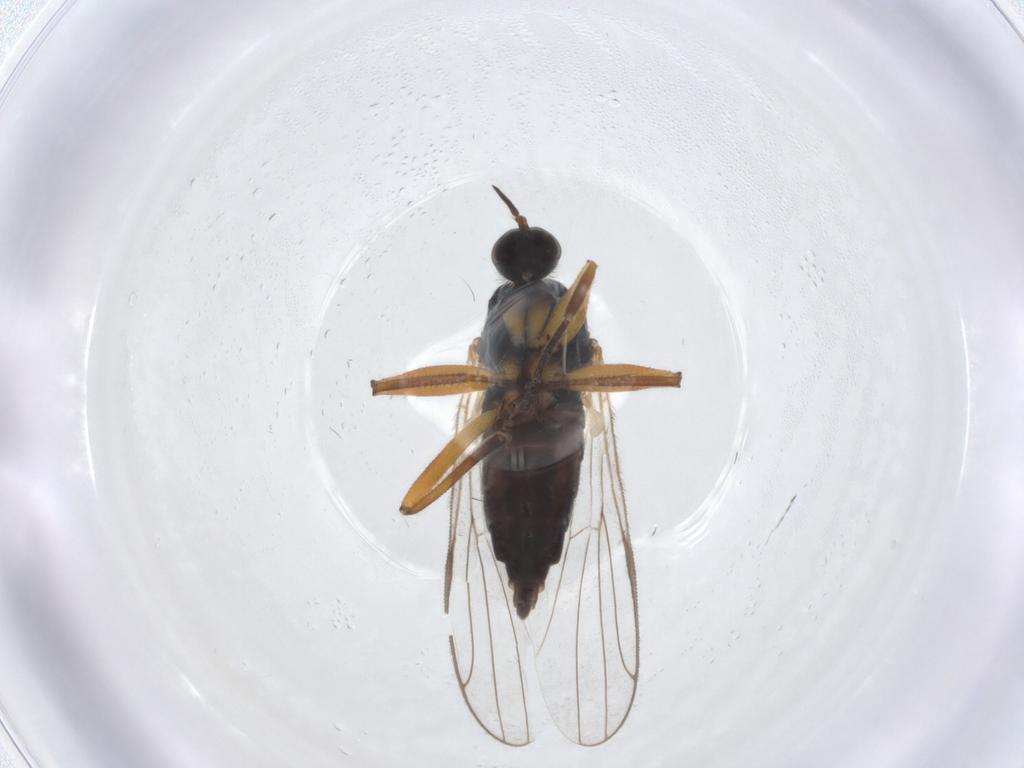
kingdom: Animalia
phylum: Arthropoda
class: Insecta
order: Diptera
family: Hybotidae
